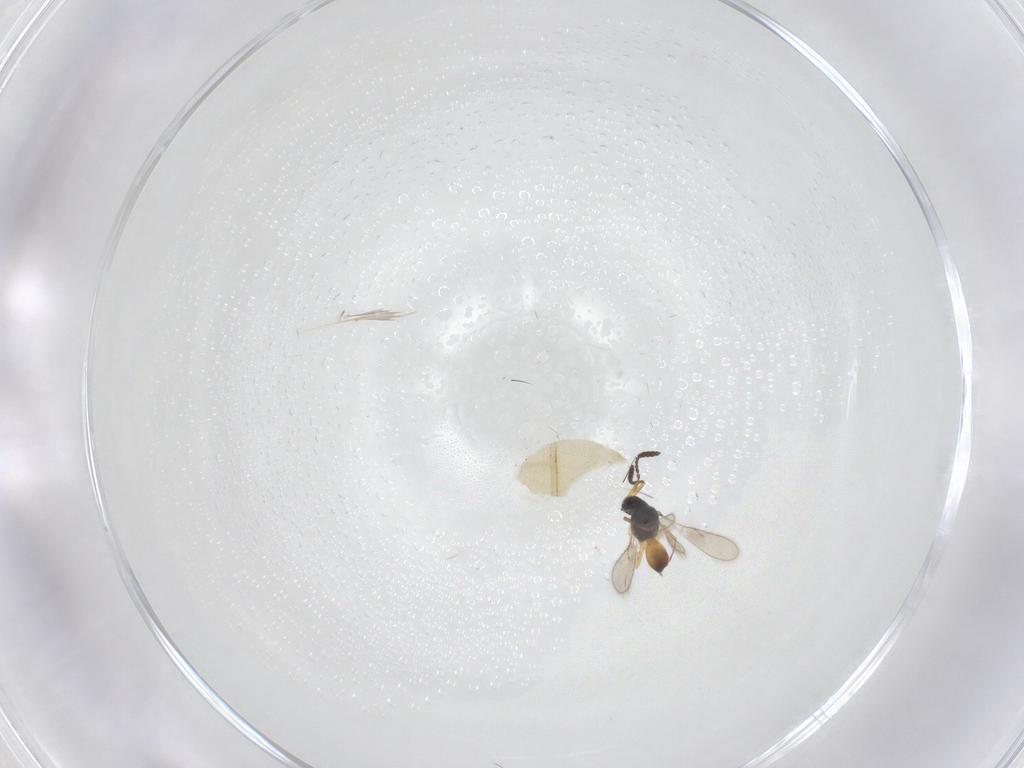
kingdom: Animalia
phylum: Arthropoda
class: Insecta
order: Hymenoptera
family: Scelionidae
